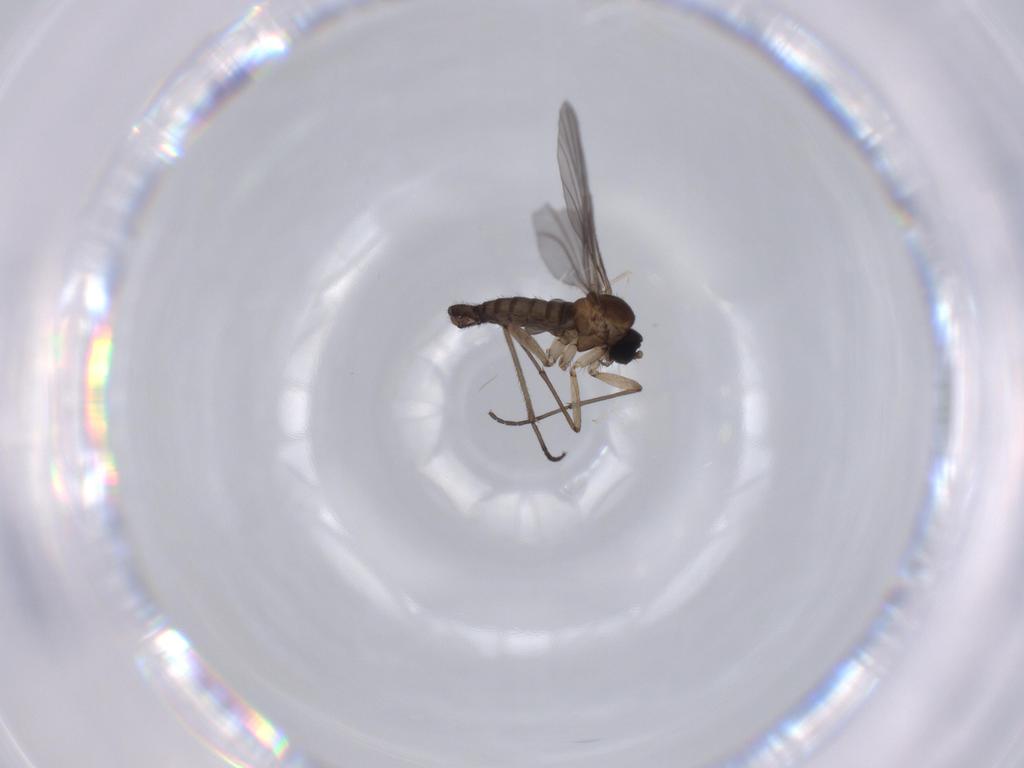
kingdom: Animalia
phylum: Arthropoda
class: Insecta
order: Diptera
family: Sciaridae
